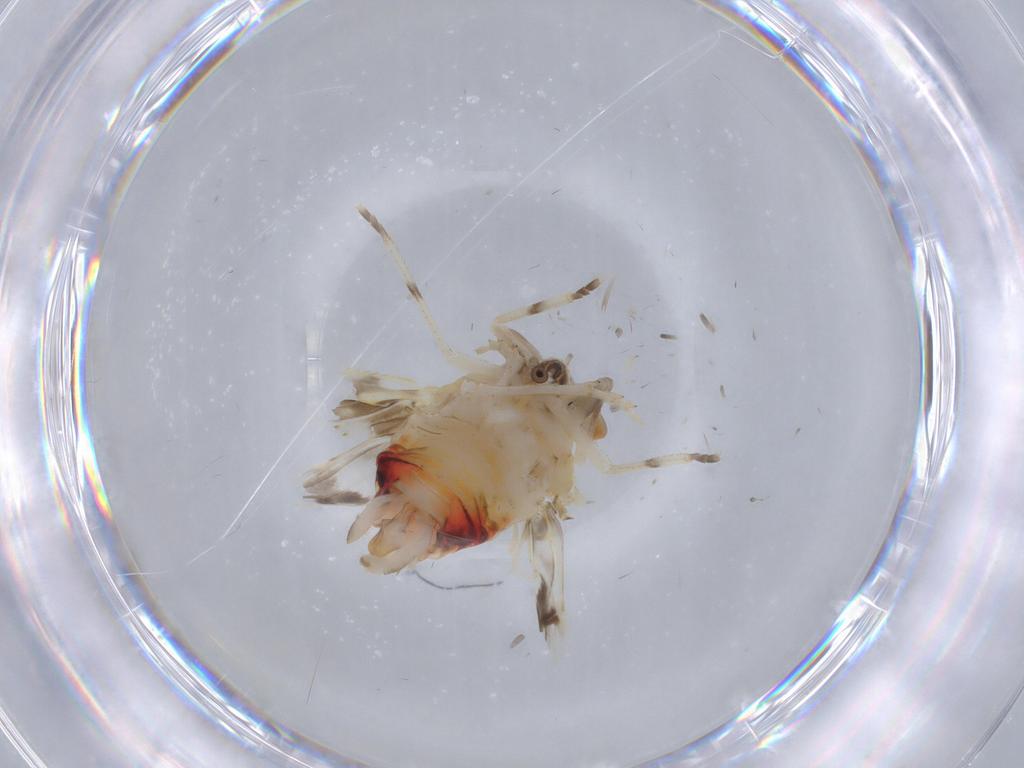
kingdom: Animalia
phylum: Arthropoda
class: Insecta
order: Hemiptera
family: Derbidae
